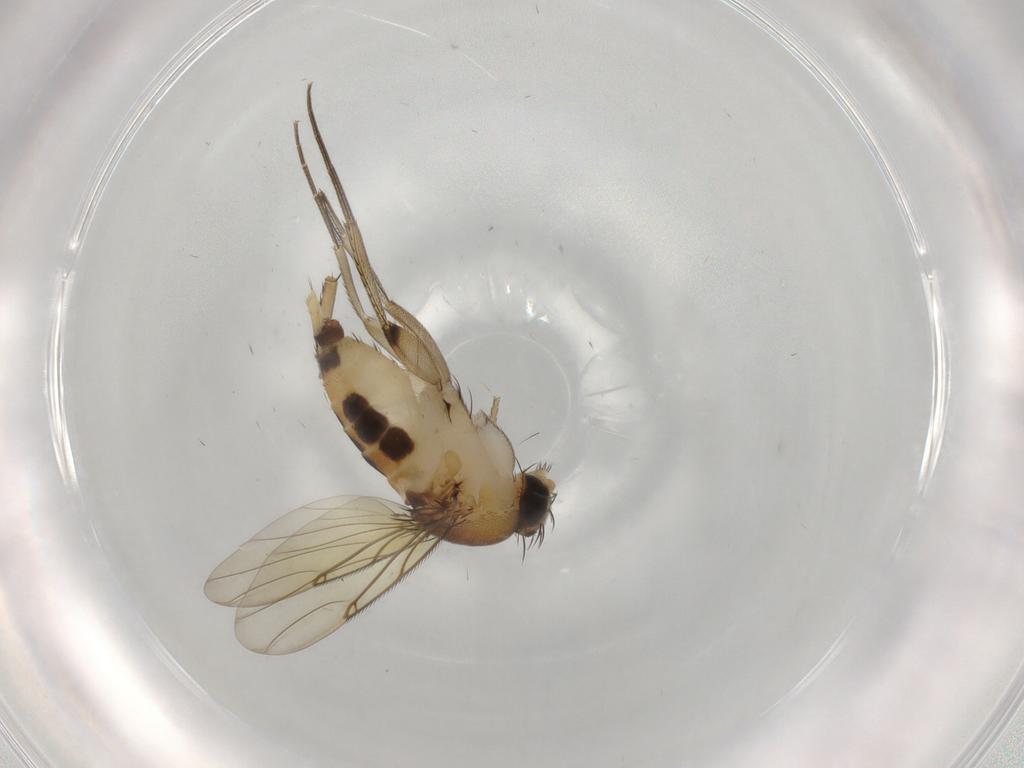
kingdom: Animalia
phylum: Arthropoda
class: Insecta
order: Diptera
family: Phoridae
